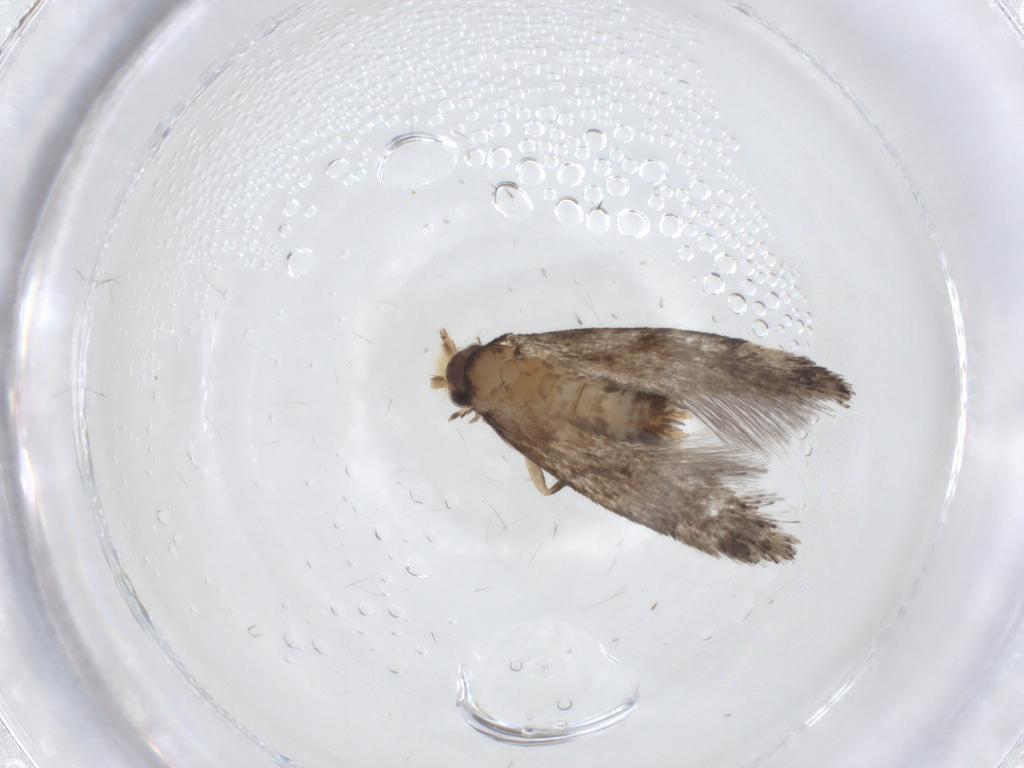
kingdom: Animalia
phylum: Arthropoda
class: Insecta
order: Lepidoptera
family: Tineidae
